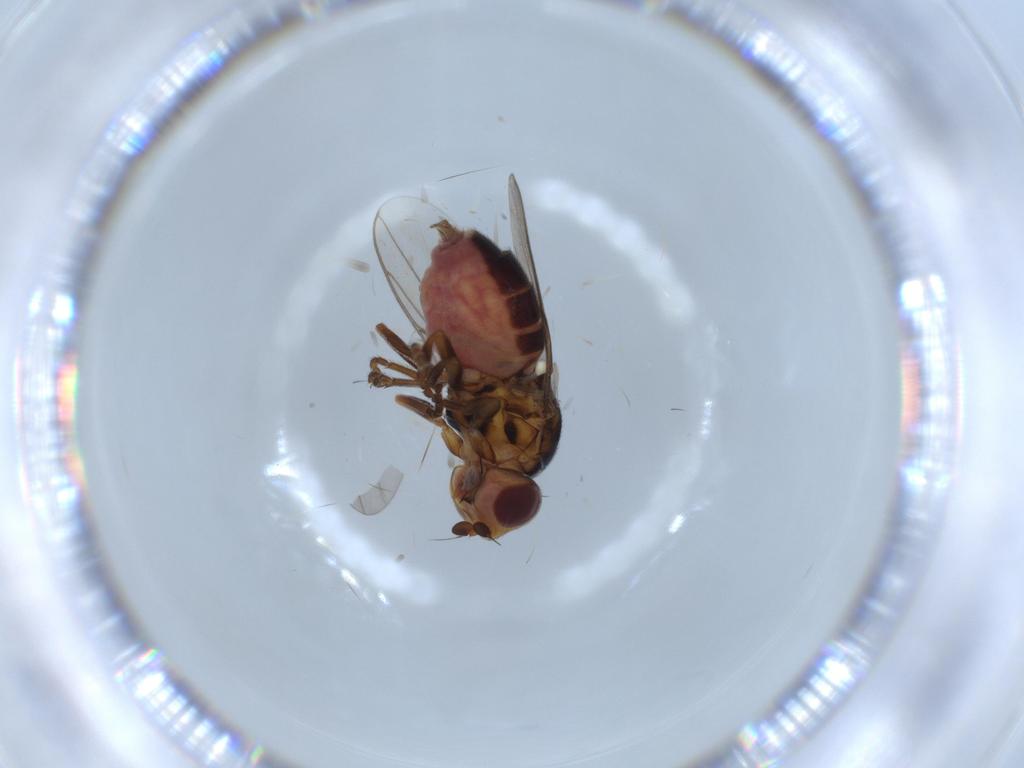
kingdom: Animalia
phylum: Arthropoda
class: Insecta
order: Diptera
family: Chloropidae
